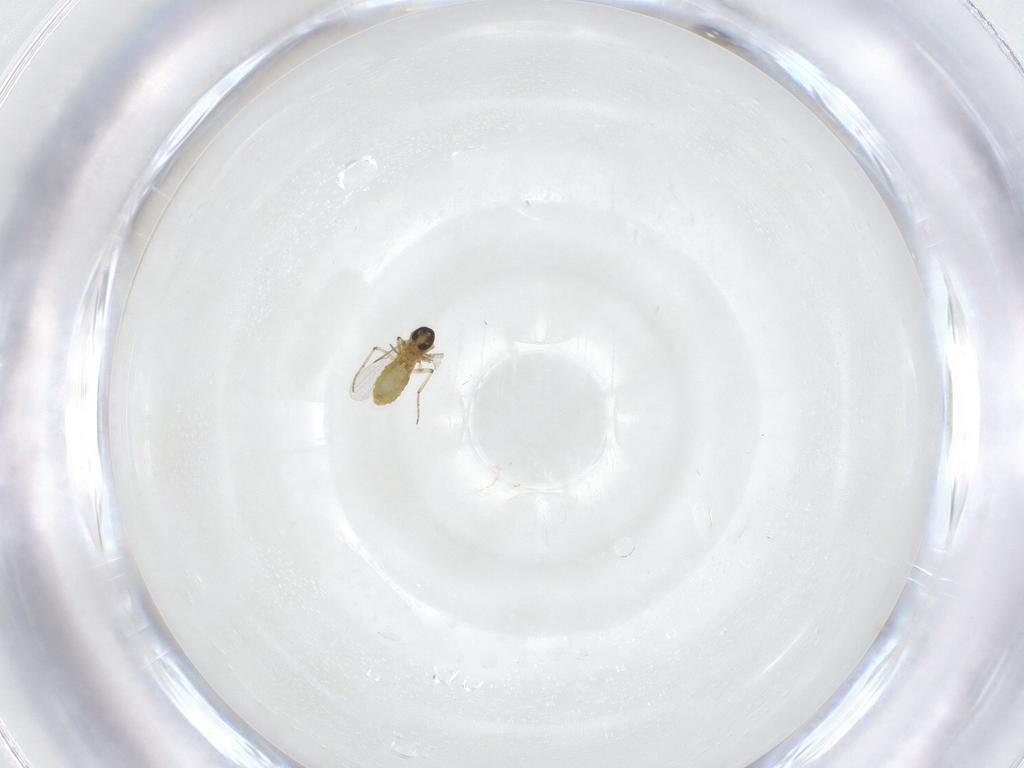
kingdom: Animalia
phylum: Arthropoda
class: Insecta
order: Diptera
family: Ceratopogonidae
